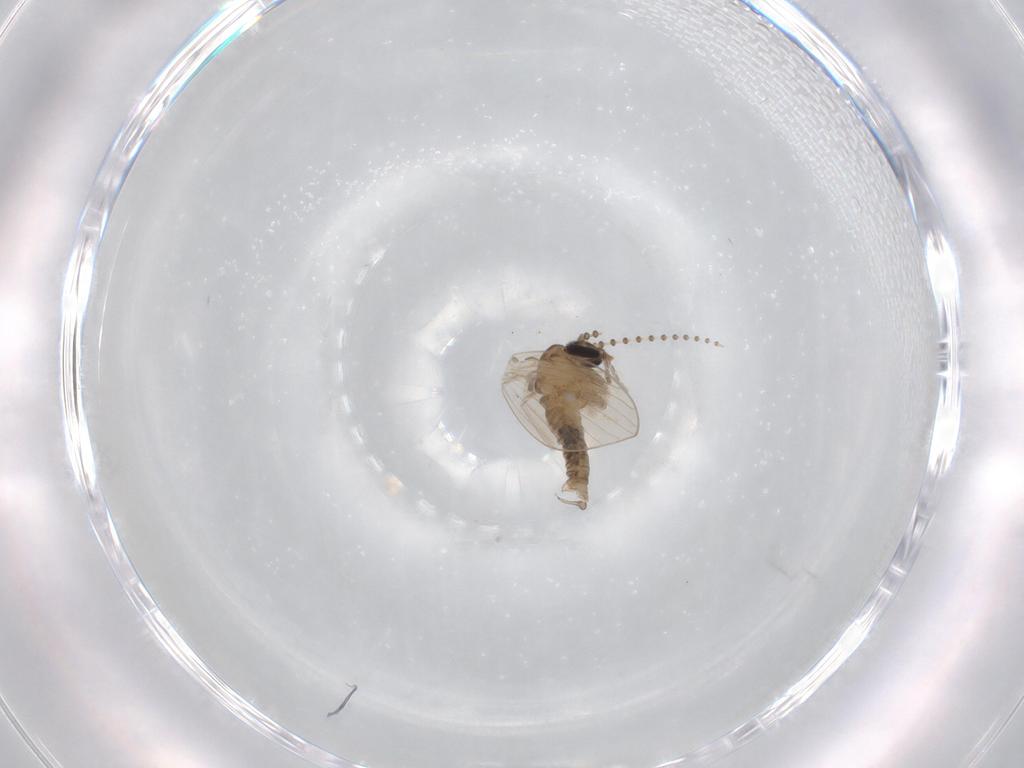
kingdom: Animalia
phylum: Arthropoda
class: Insecta
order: Diptera
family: Psychodidae
